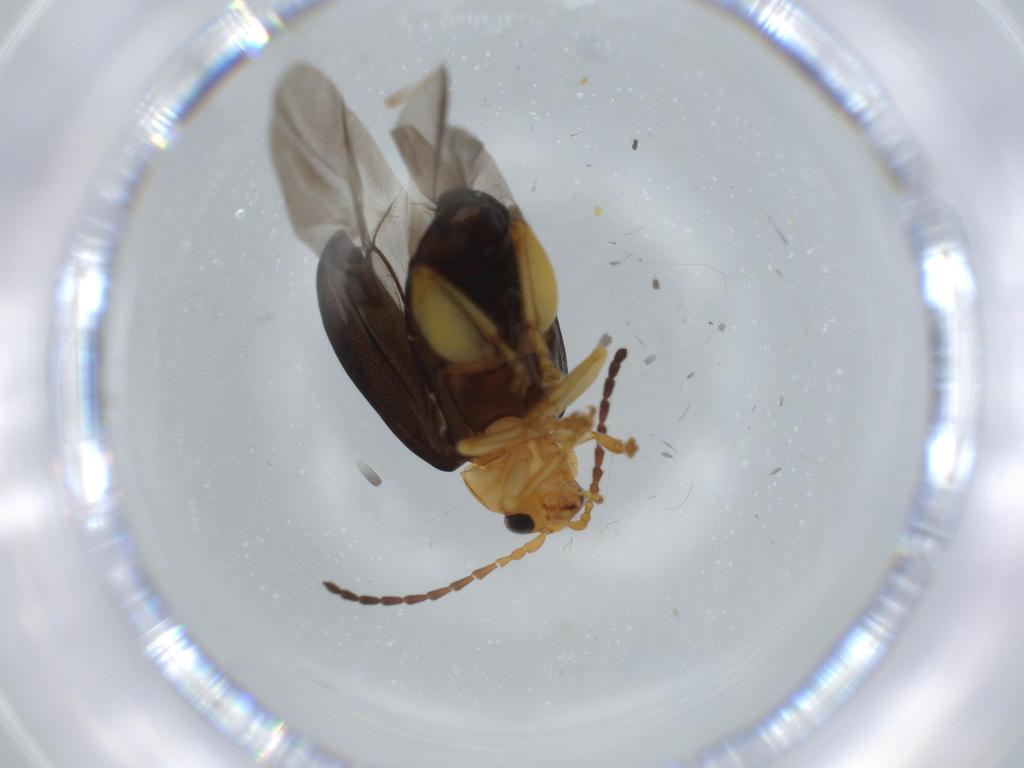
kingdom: Animalia
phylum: Arthropoda
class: Insecta
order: Coleoptera
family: Chrysomelidae
